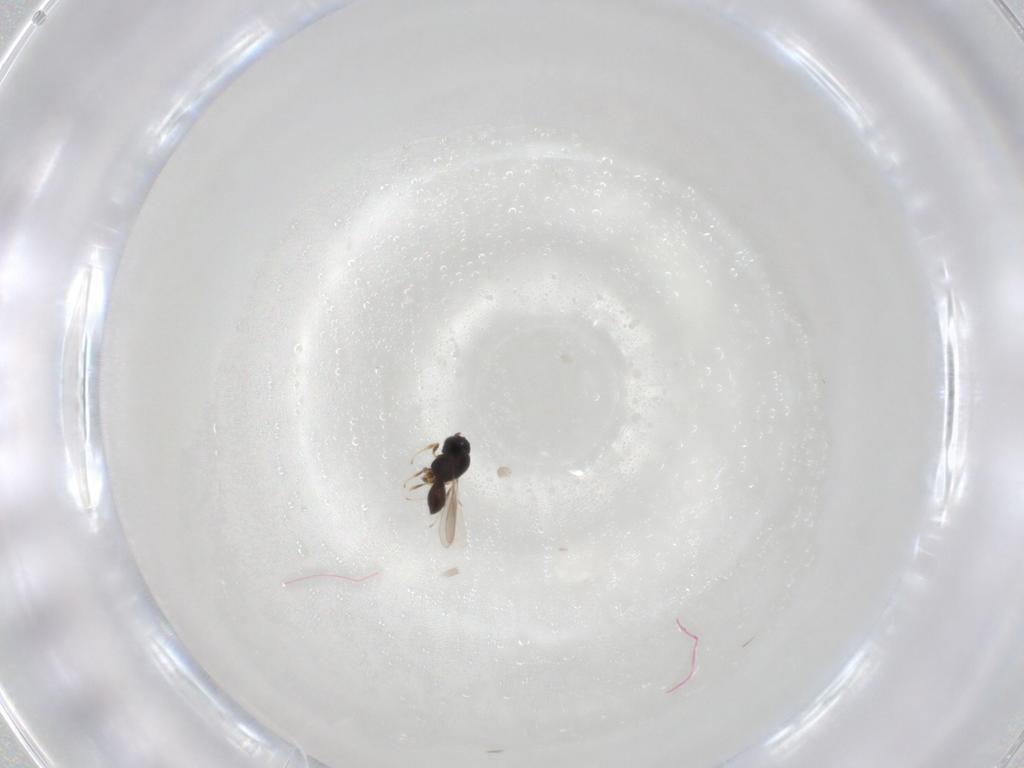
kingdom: Animalia
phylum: Arthropoda
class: Insecta
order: Hymenoptera
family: Scelionidae
